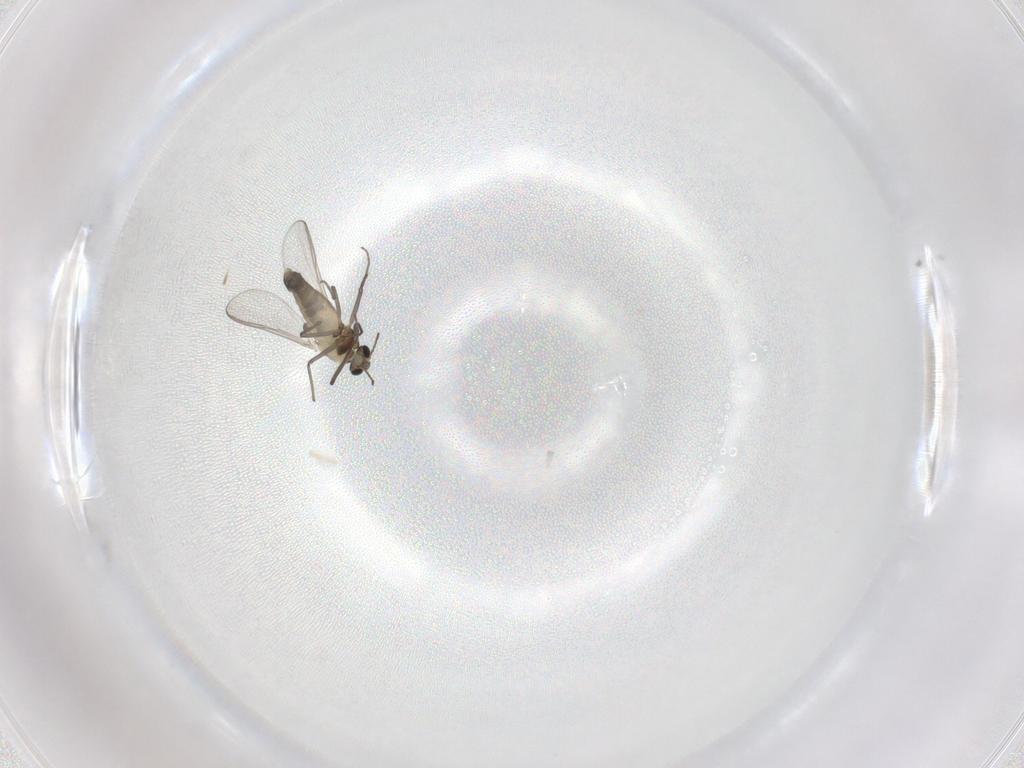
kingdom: Animalia
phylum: Arthropoda
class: Insecta
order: Diptera
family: Chironomidae
